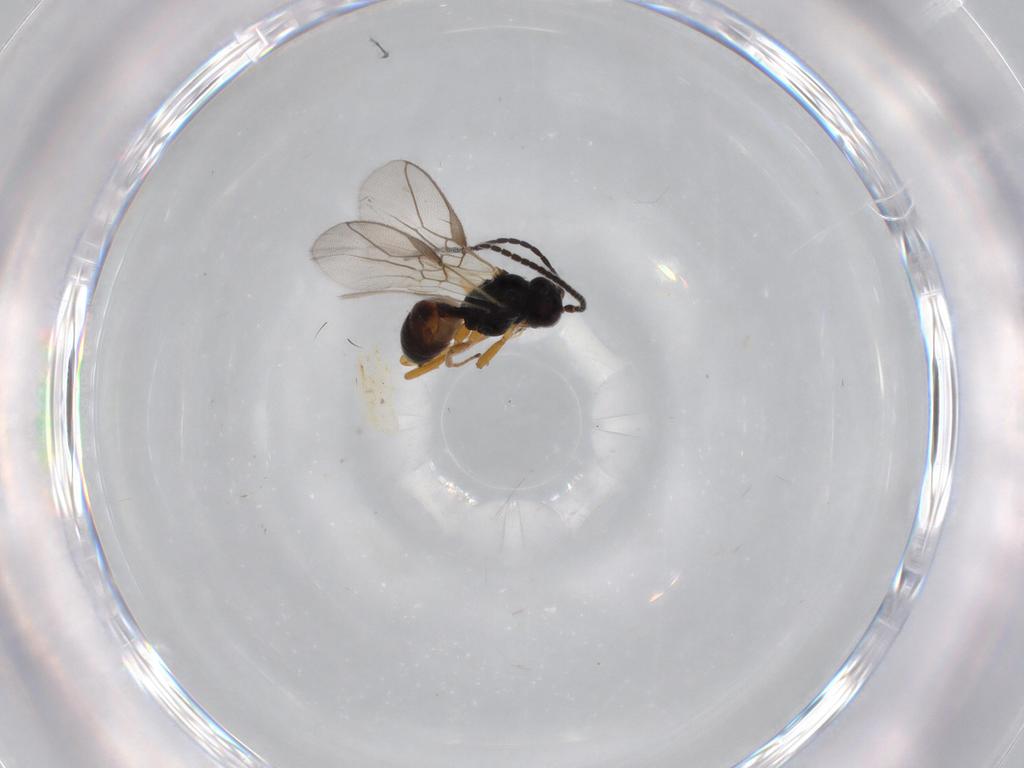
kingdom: Animalia
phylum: Arthropoda
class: Insecta
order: Hymenoptera
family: Braconidae
